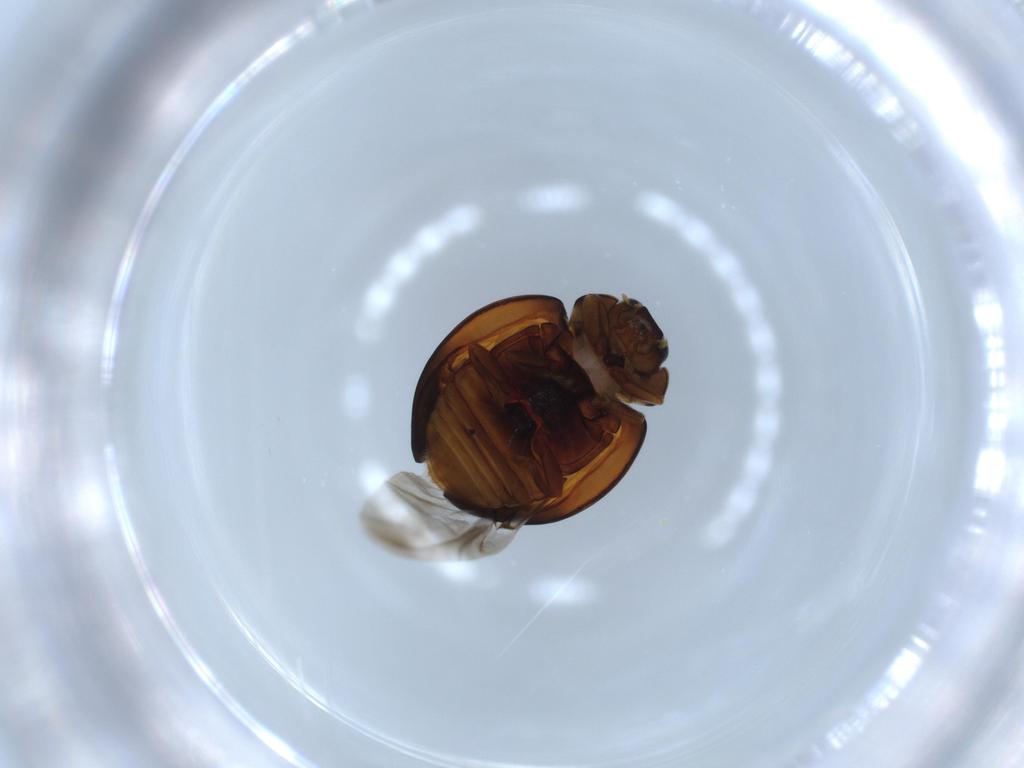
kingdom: Animalia
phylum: Arthropoda
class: Insecta
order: Coleoptera
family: Coccinellidae
